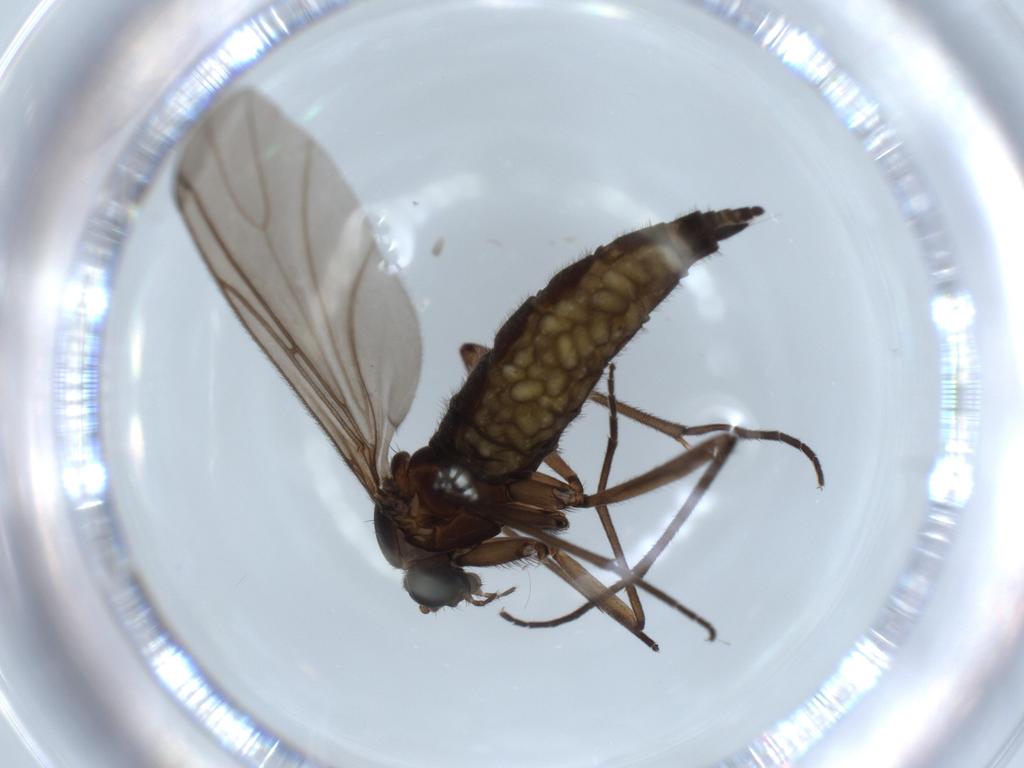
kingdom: Animalia
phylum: Arthropoda
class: Insecta
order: Diptera
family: Sciaridae
